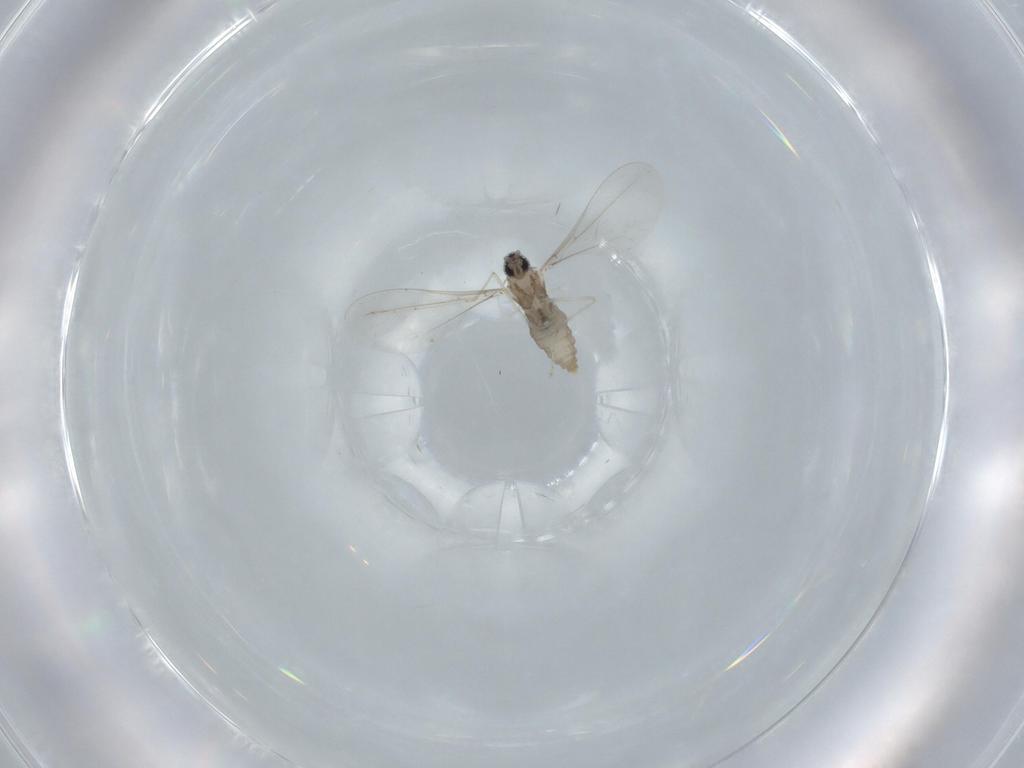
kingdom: Animalia
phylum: Arthropoda
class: Insecta
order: Diptera
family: Cecidomyiidae
